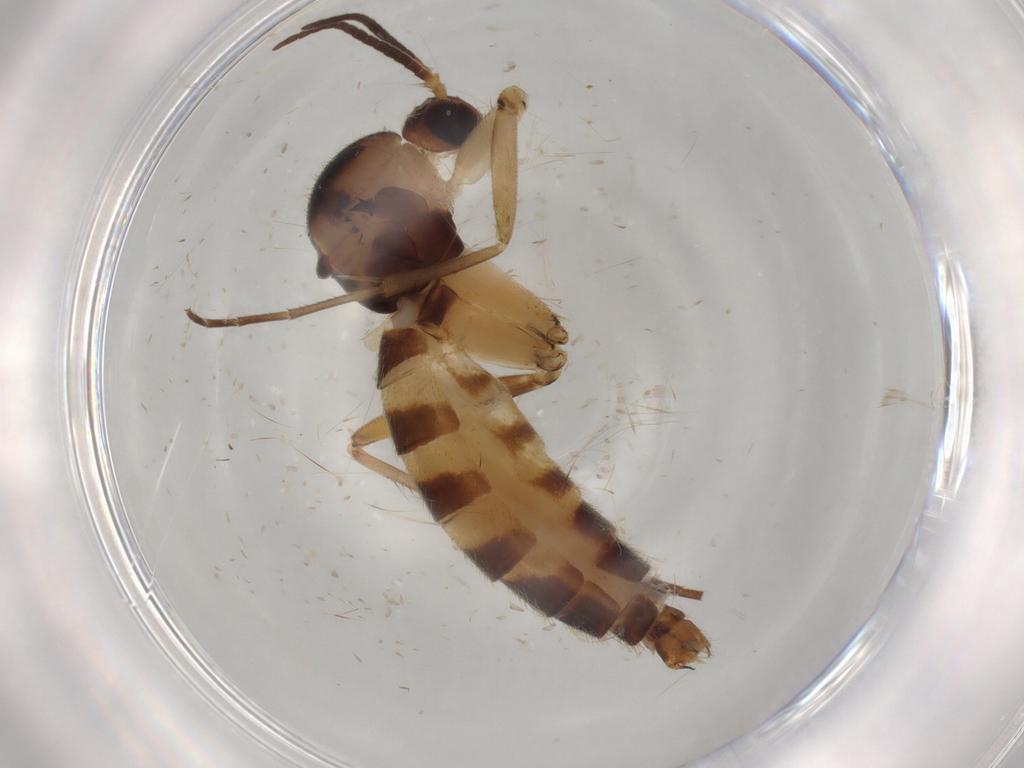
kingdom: Animalia
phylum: Arthropoda
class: Insecta
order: Diptera
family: Mycetophilidae
